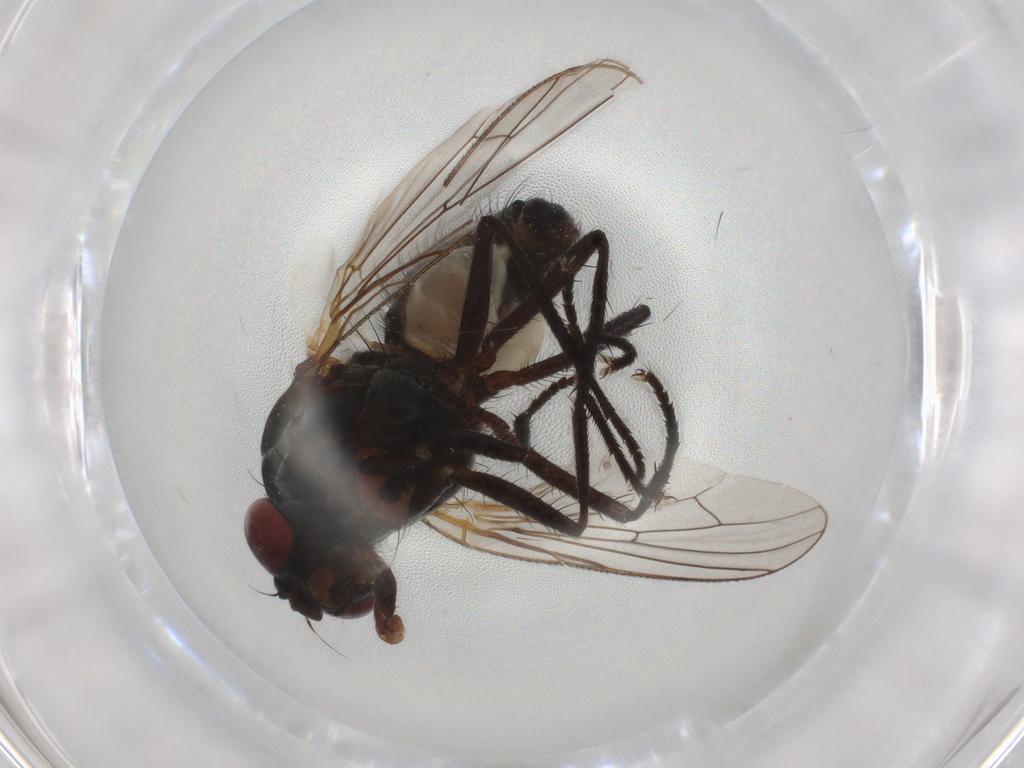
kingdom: Animalia
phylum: Arthropoda
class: Insecta
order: Diptera
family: Anthomyiidae
